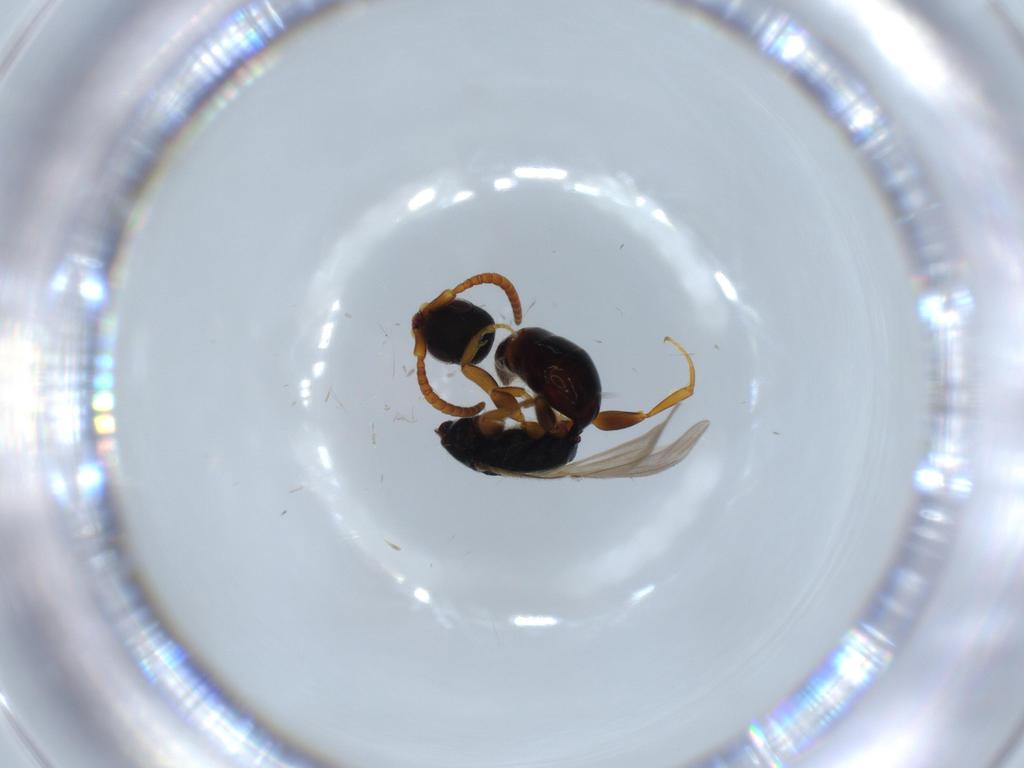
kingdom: Animalia
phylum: Arthropoda
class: Insecta
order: Hymenoptera
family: Bethylidae
